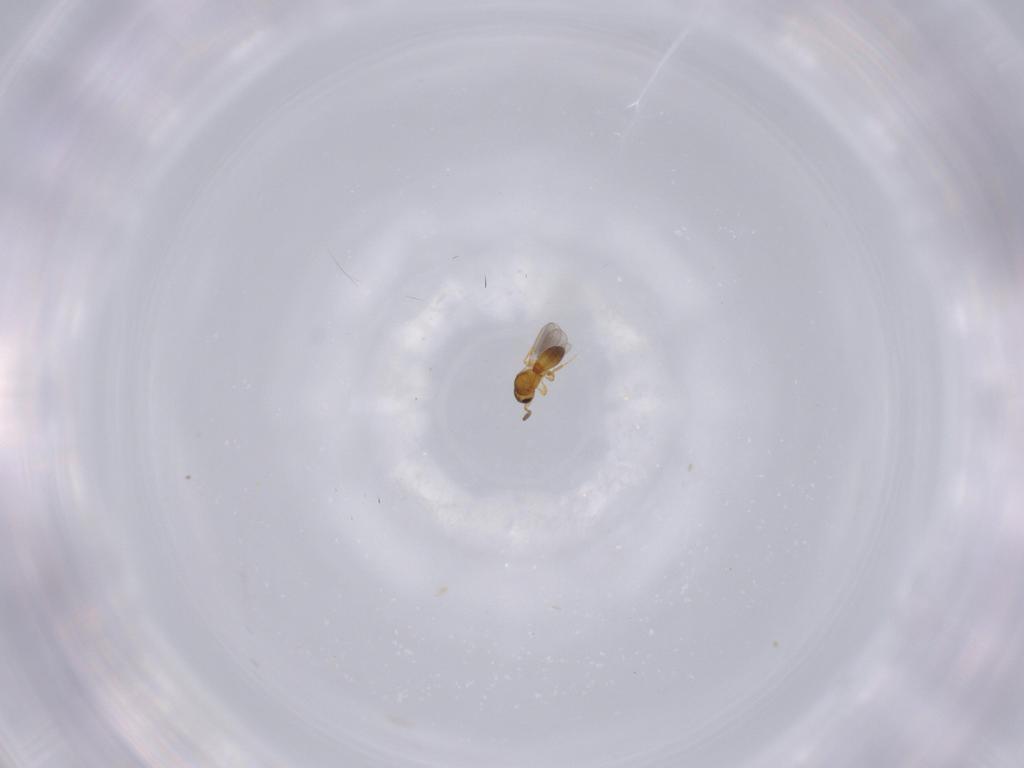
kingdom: Animalia
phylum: Arthropoda
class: Insecta
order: Hymenoptera
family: Platygastridae
